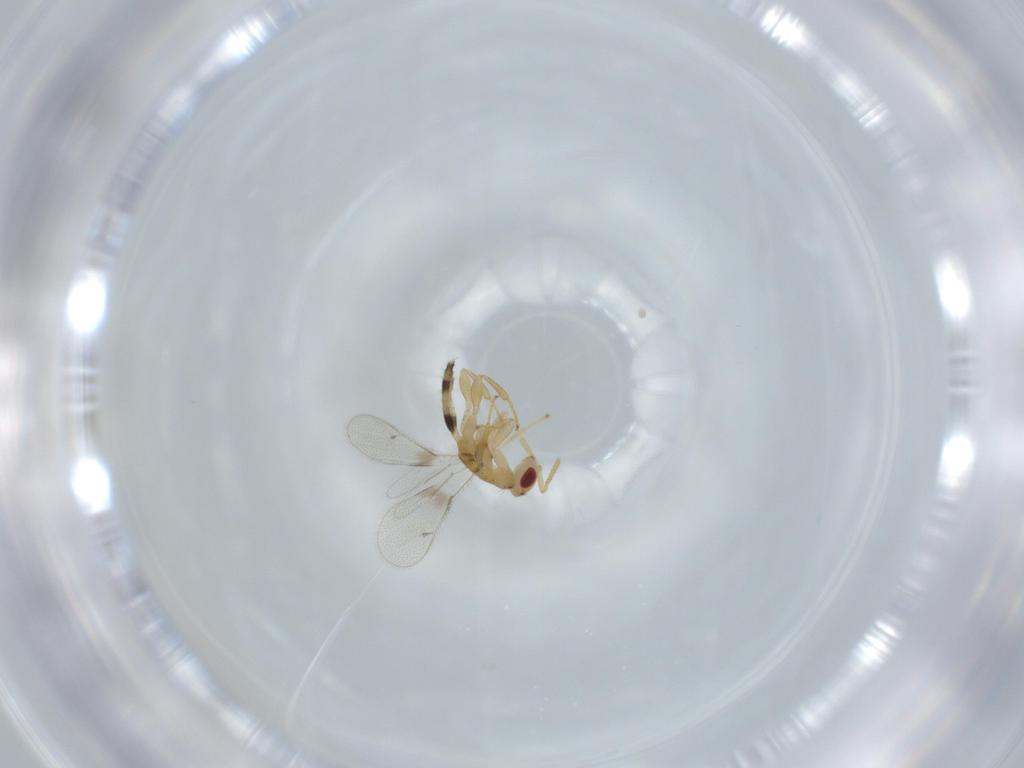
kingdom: Animalia
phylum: Arthropoda
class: Insecta
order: Hymenoptera
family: Torymidae
